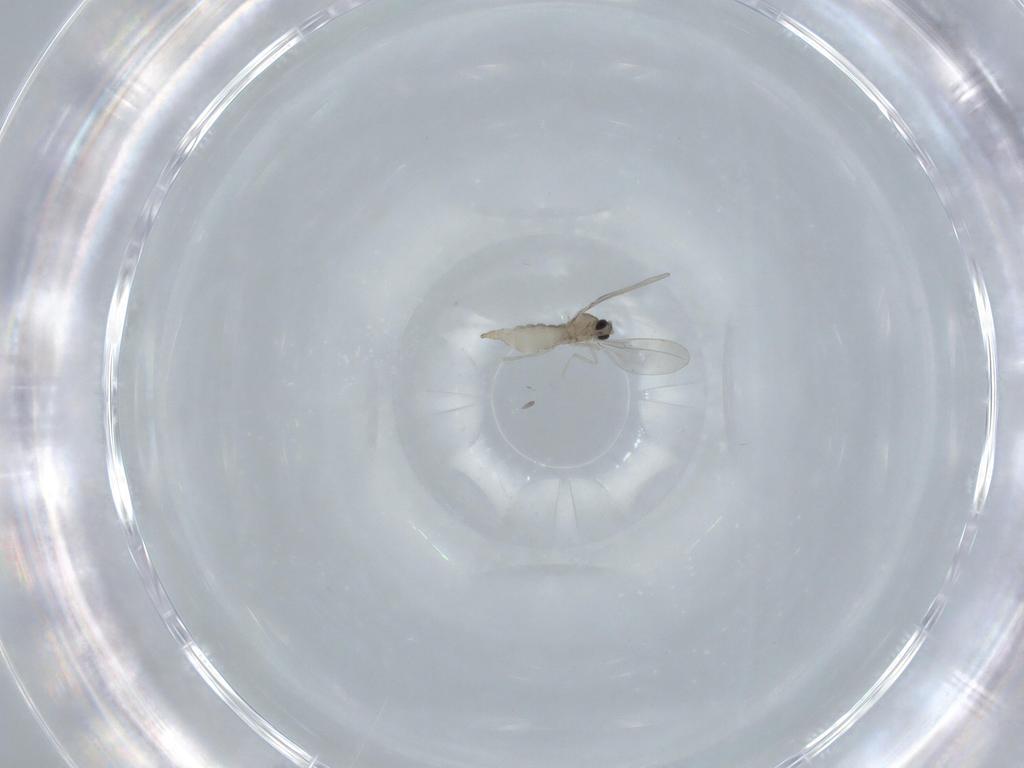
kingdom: Animalia
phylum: Arthropoda
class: Insecta
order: Diptera
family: Cecidomyiidae
